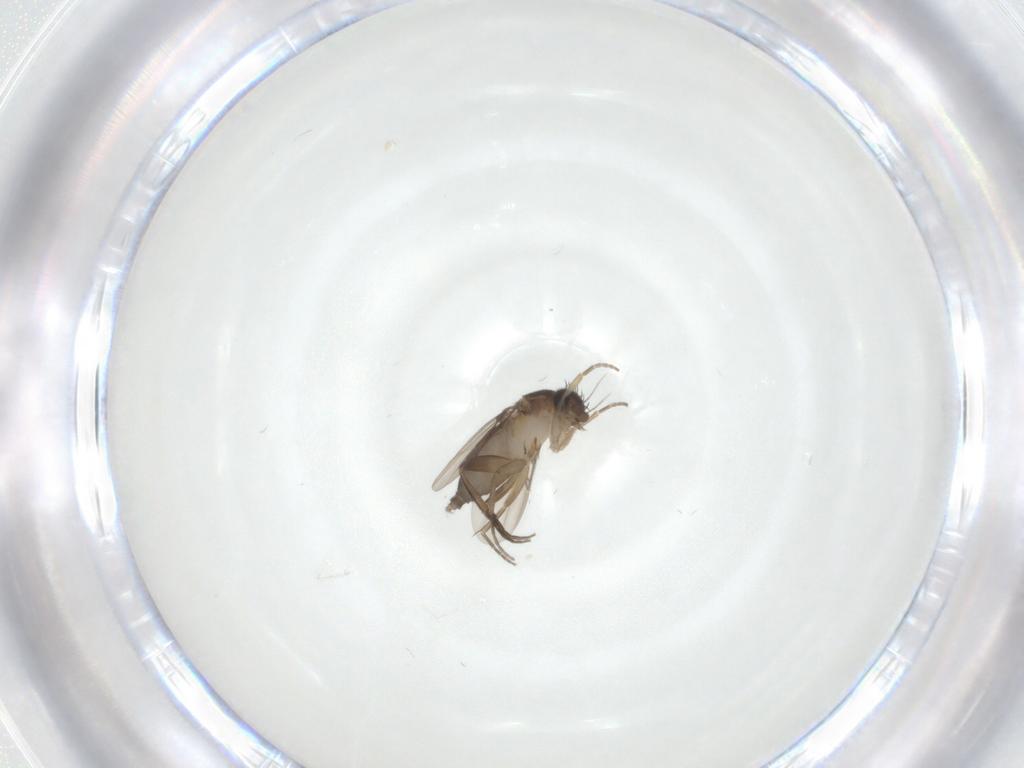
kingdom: Animalia
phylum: Arthropoda
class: Insecta
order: Diptera
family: Phoridae
